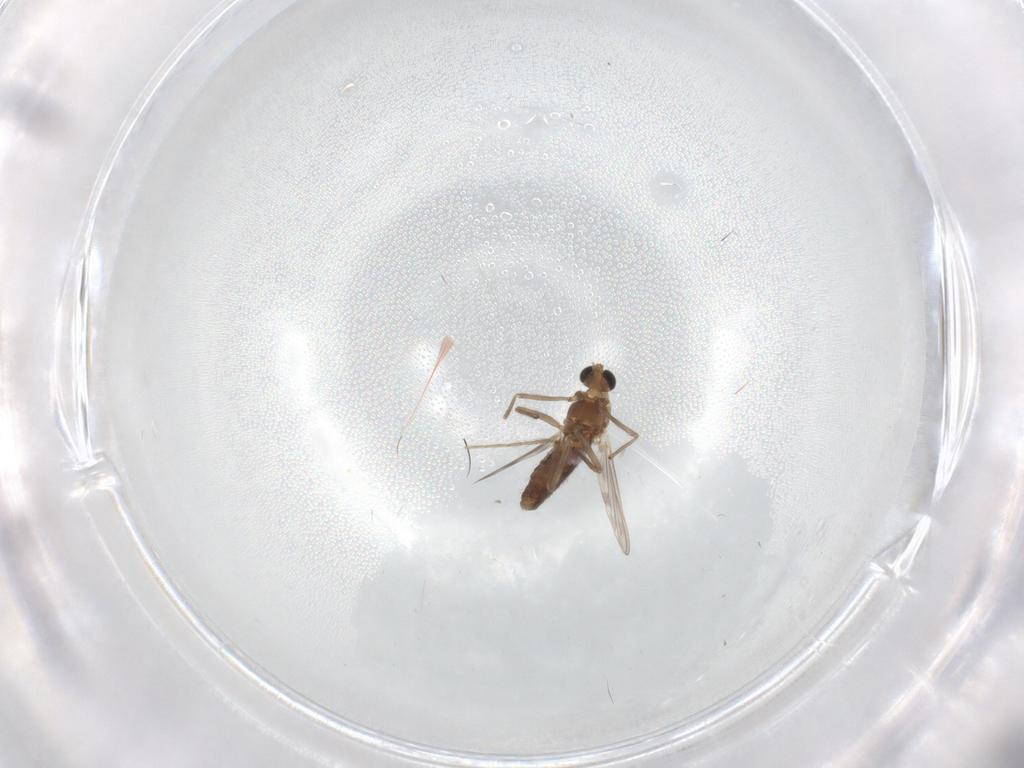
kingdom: Animalia
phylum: Arthropoda
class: Insecta
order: Diptera
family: Chironomidae
